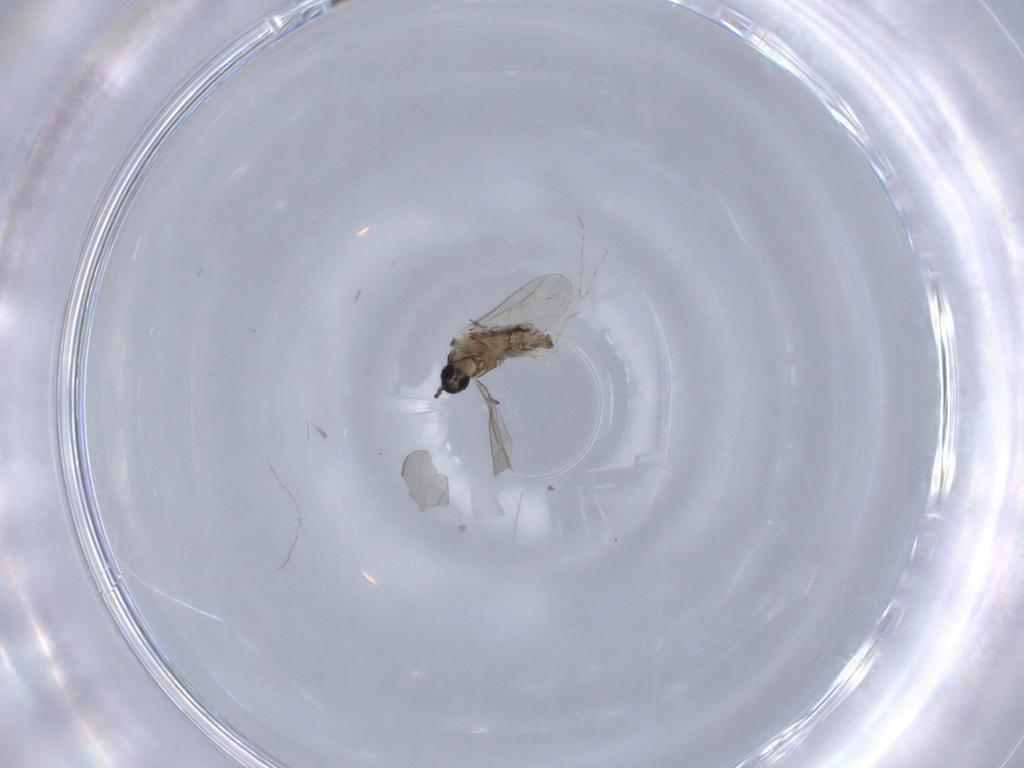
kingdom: Animalia
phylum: Arthropoda
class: Insecta
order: Diptera
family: Cecidomyiidae
